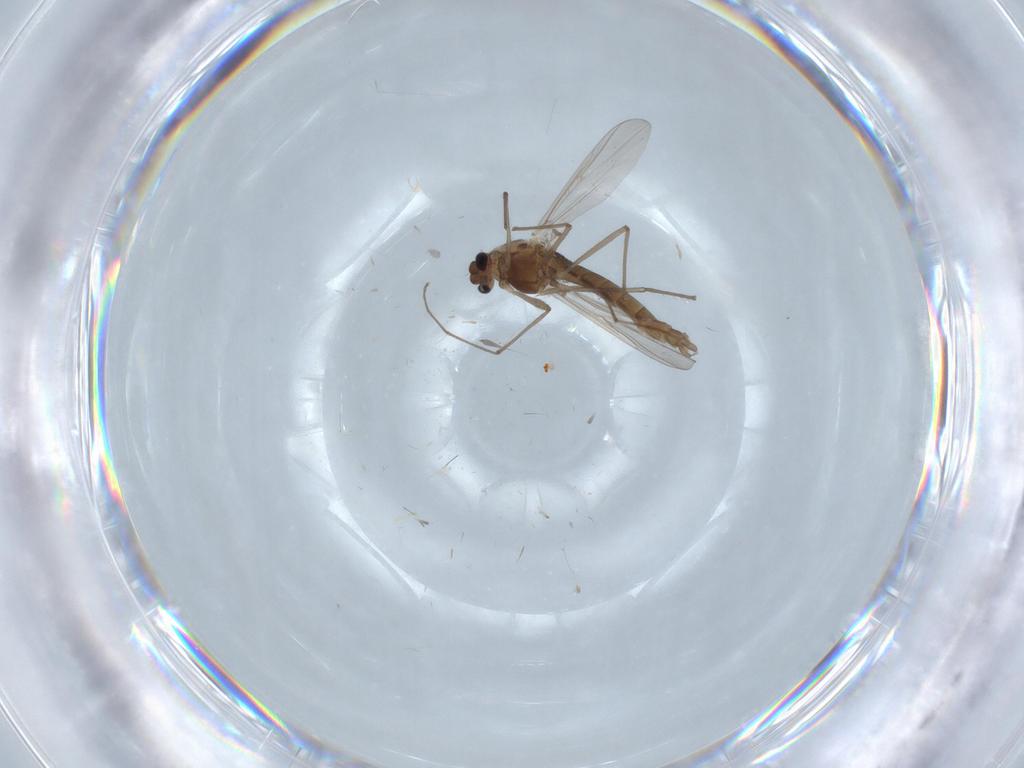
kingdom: Animalia
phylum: Arthropoda
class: Insecta
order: Diptera
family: Chironomidae
